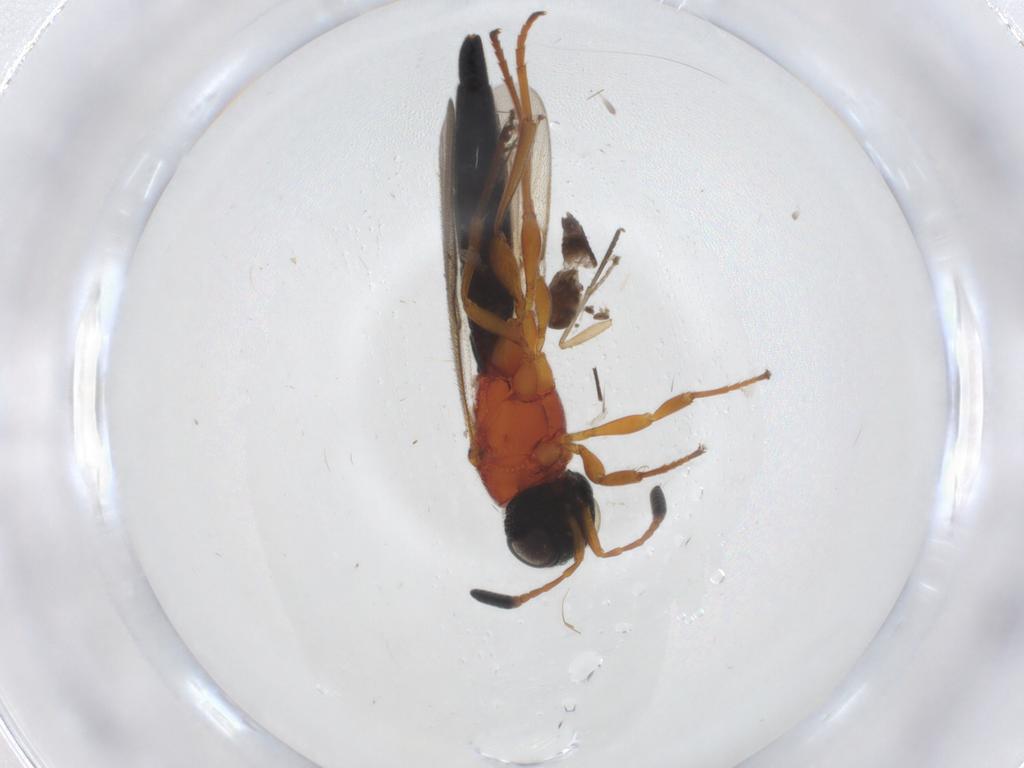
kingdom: Animalia
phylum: Arthropoda
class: Insecta
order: Hymenoptera
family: Scelionidae
